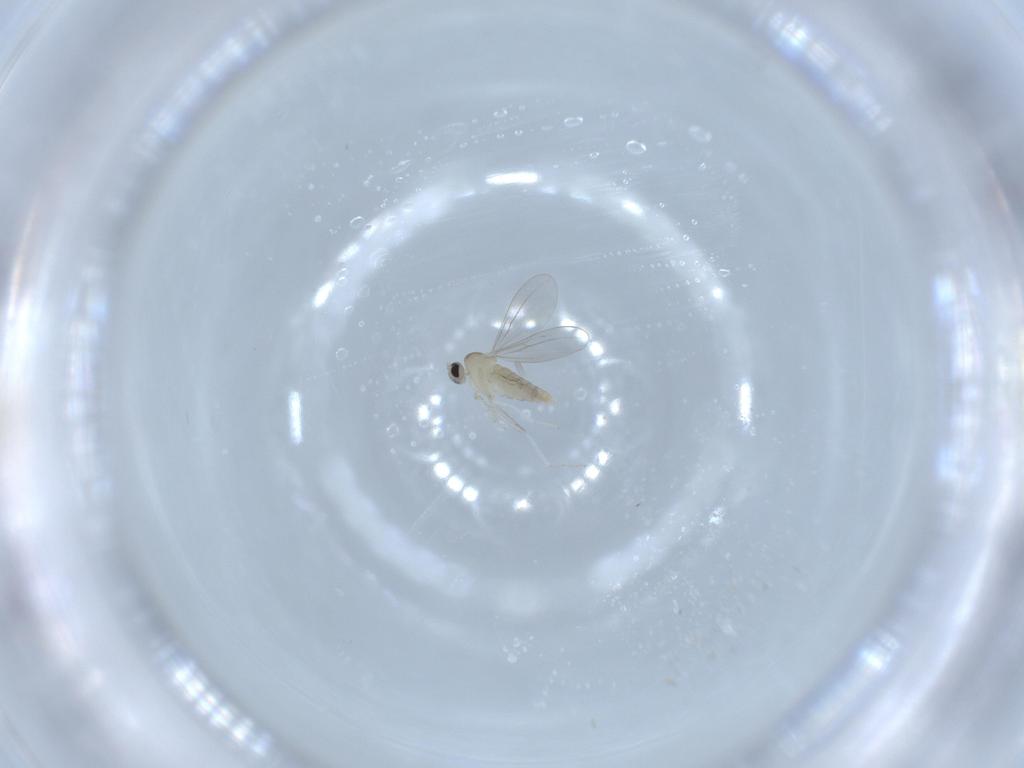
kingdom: Animalia
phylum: Arthropoda
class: Insecta
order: Diptera
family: Cecidomyiidae
